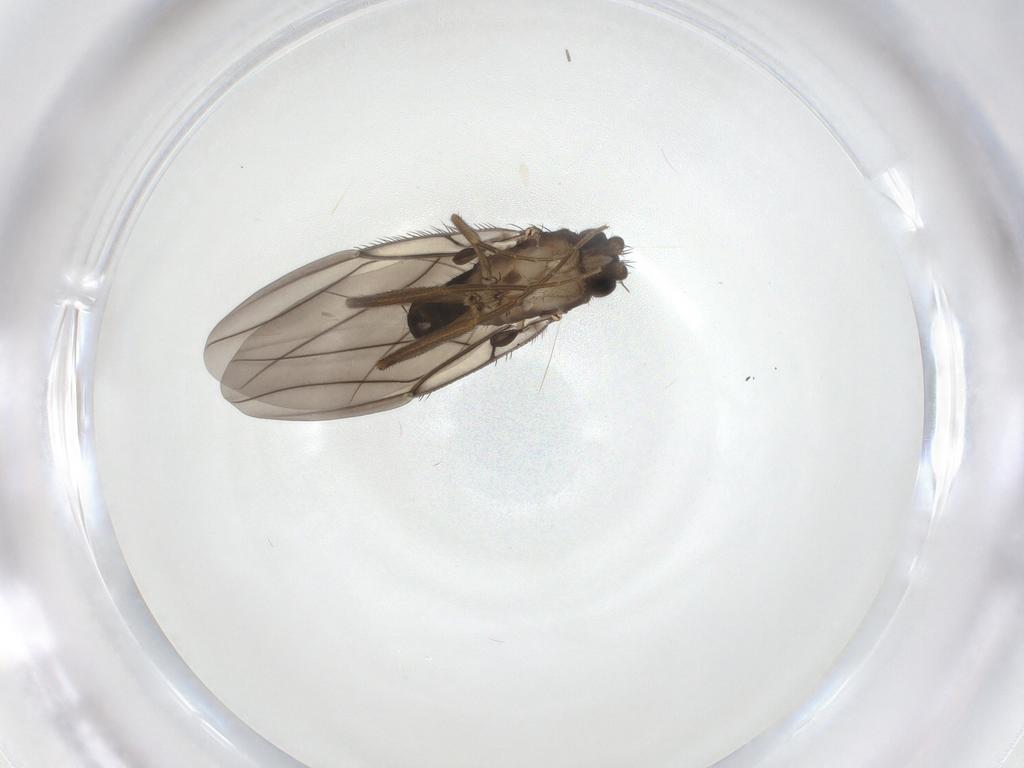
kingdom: Animalia
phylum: Arthropoda
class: Insecta
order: Diptera
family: Phoridae
